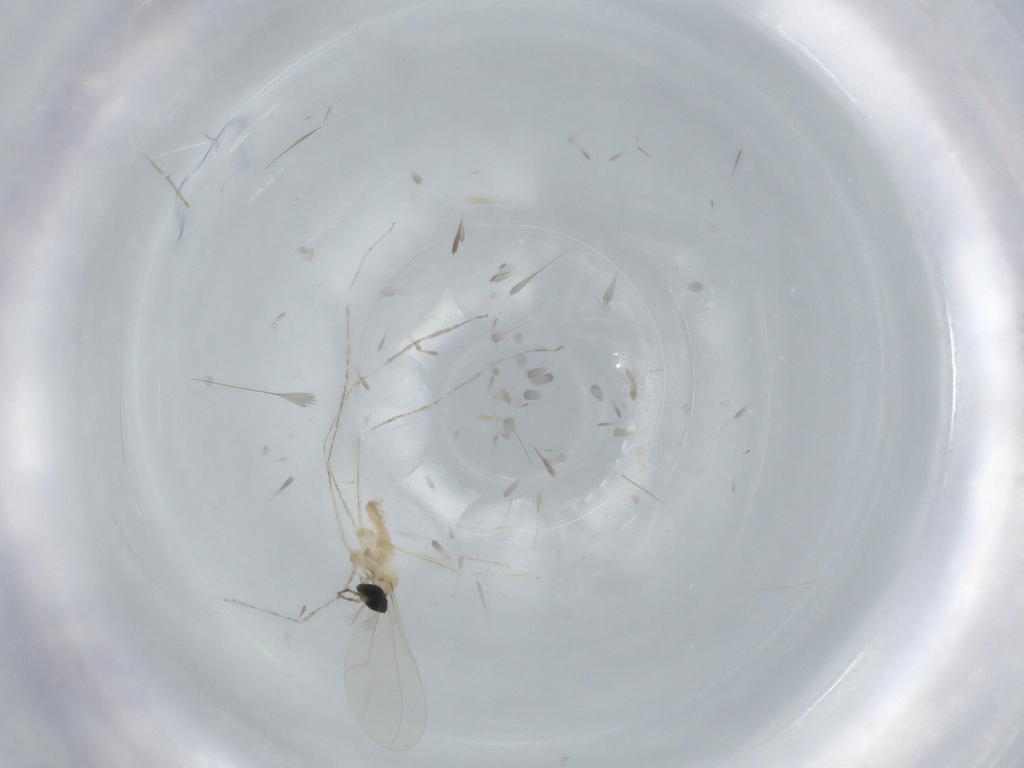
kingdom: Animalia
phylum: Arthropoda
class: Insecta
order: Diptera
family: Cecidomyiidae
